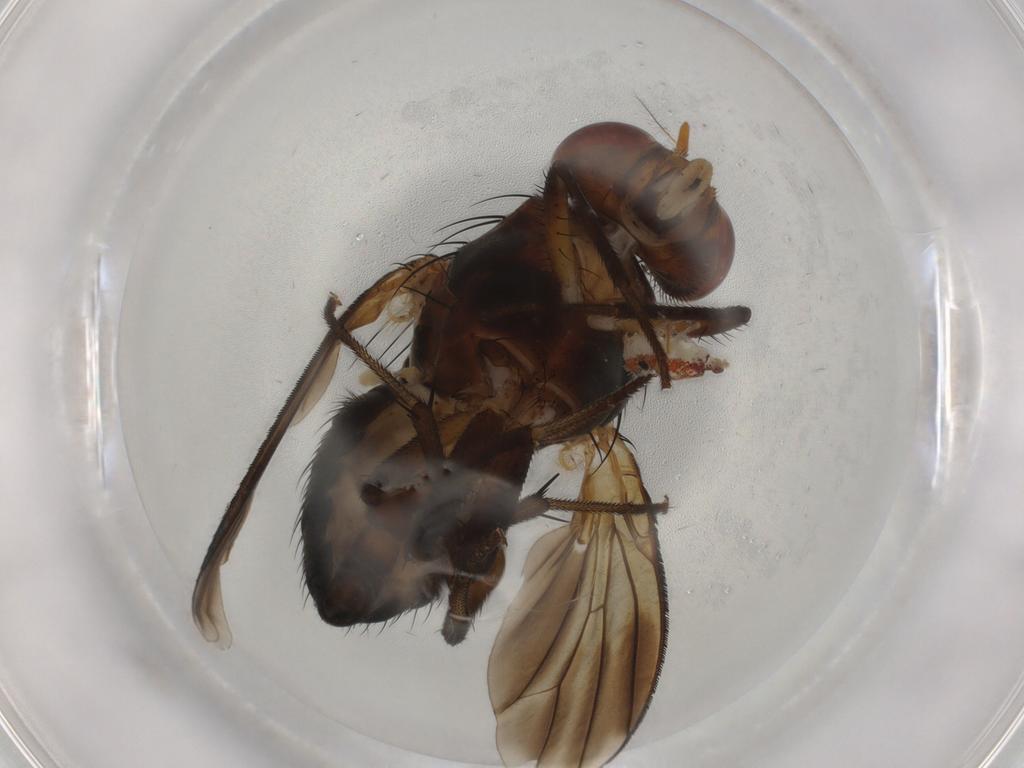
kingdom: Animalia
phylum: Arthropoda
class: Insecta
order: Diptera
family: Lauxaniidae
